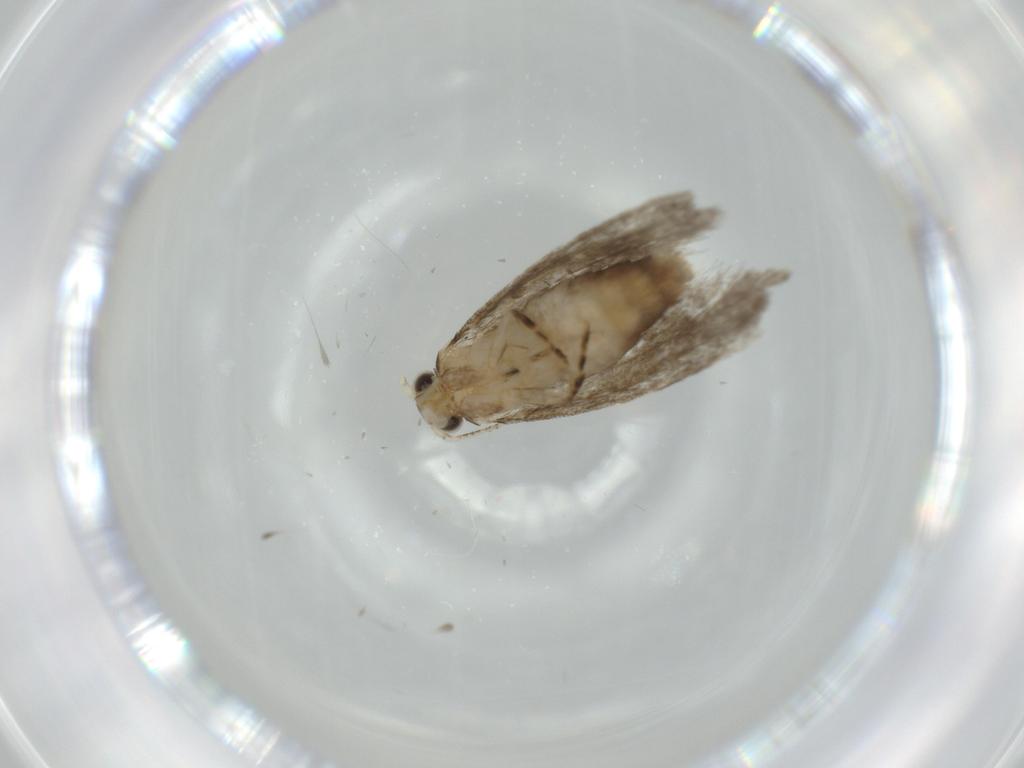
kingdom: Animalia
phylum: Arthropoda
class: Insecta
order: Lepidoptera
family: Tineidae
